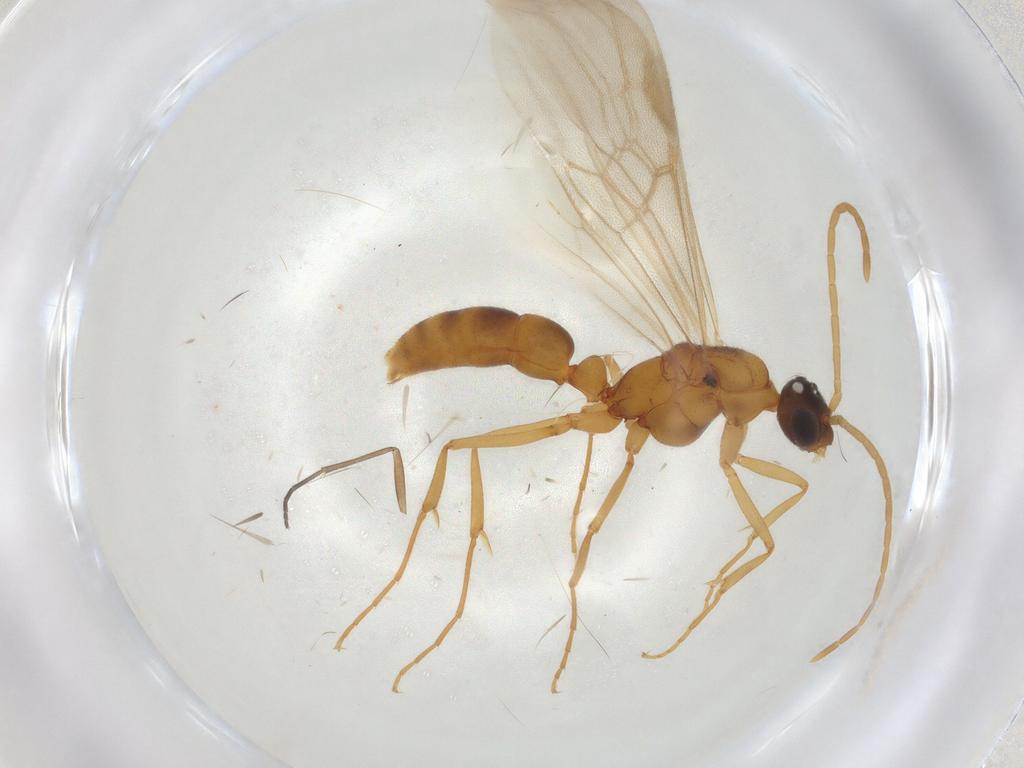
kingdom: Animalia
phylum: Arthropoda
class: Insecta
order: Hymenoptera
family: Formicidae
